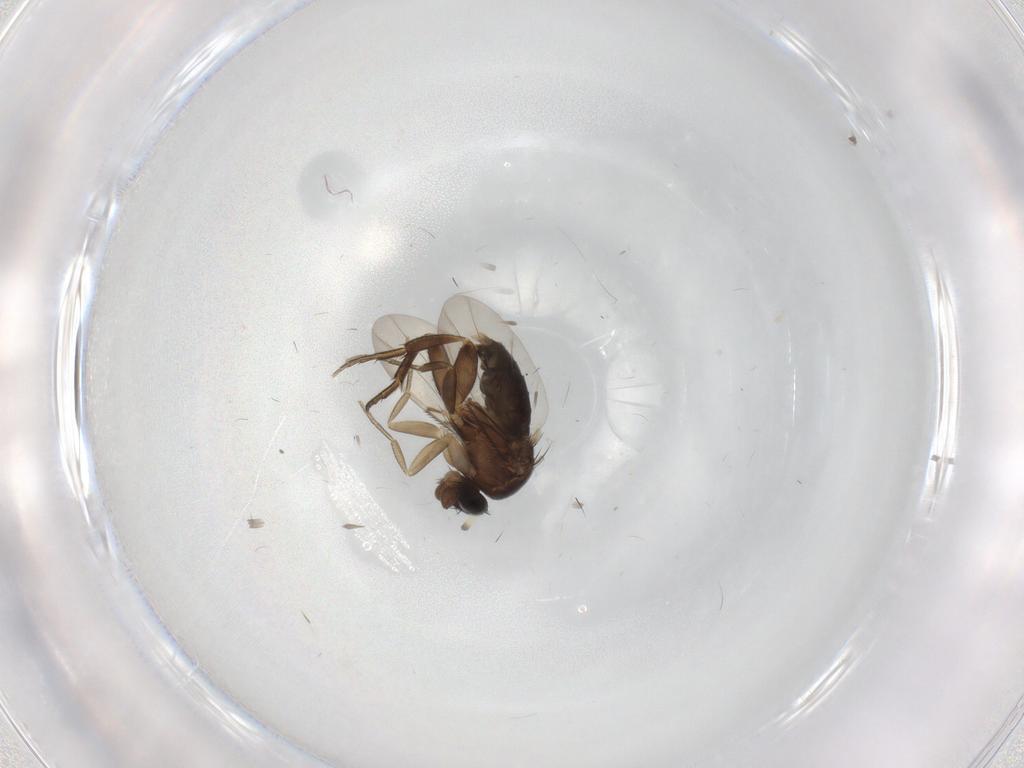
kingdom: Animalia
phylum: Arthropoda
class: Insecta
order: Diptera
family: Phoridae
